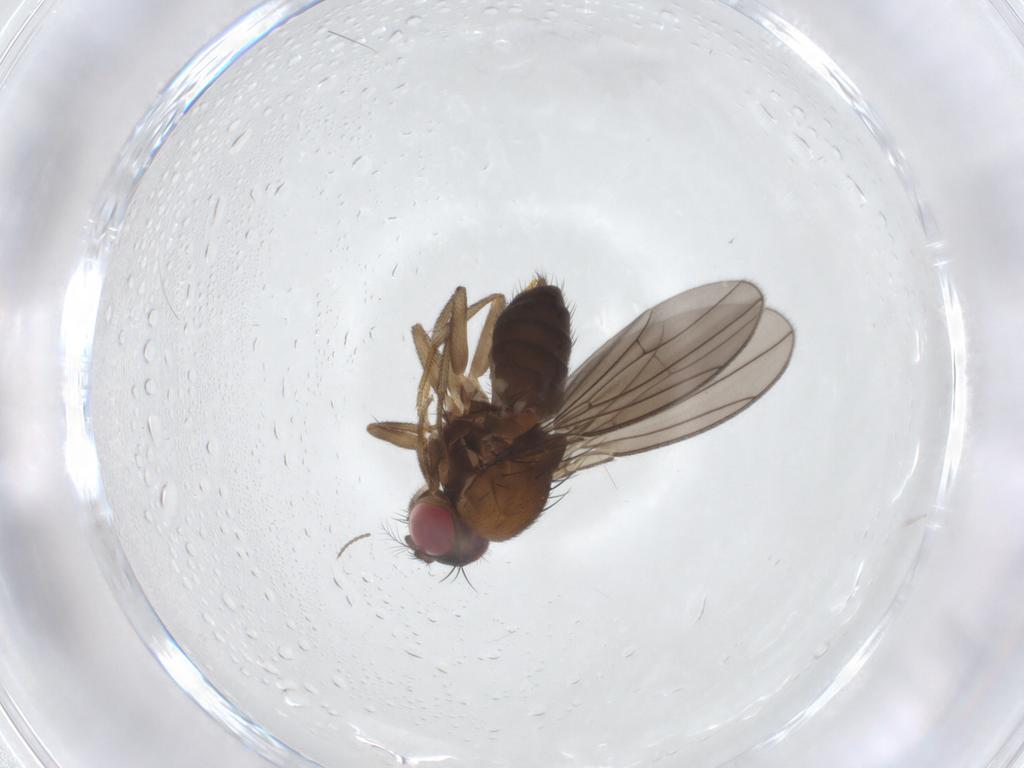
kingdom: Animalia
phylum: Arthropoda
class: Insecta
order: Diptera
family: Drosophilidae
